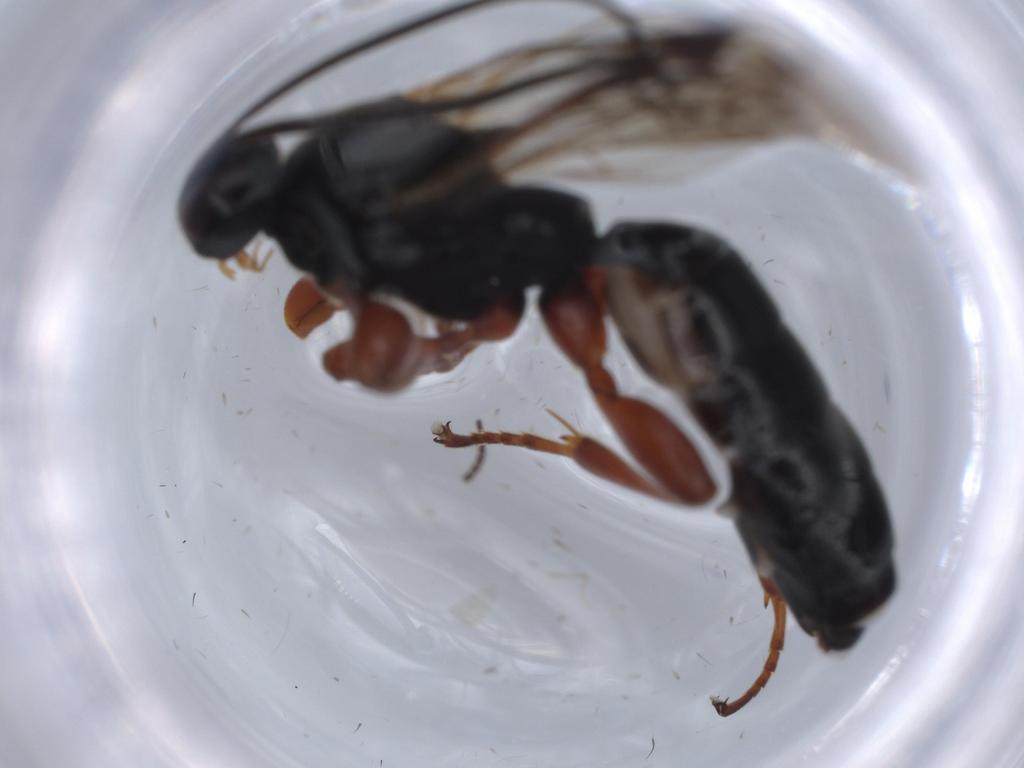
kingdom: Animalia
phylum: Arthropoda
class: Insecta
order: Hymenoptera
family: Ichneumonidae
